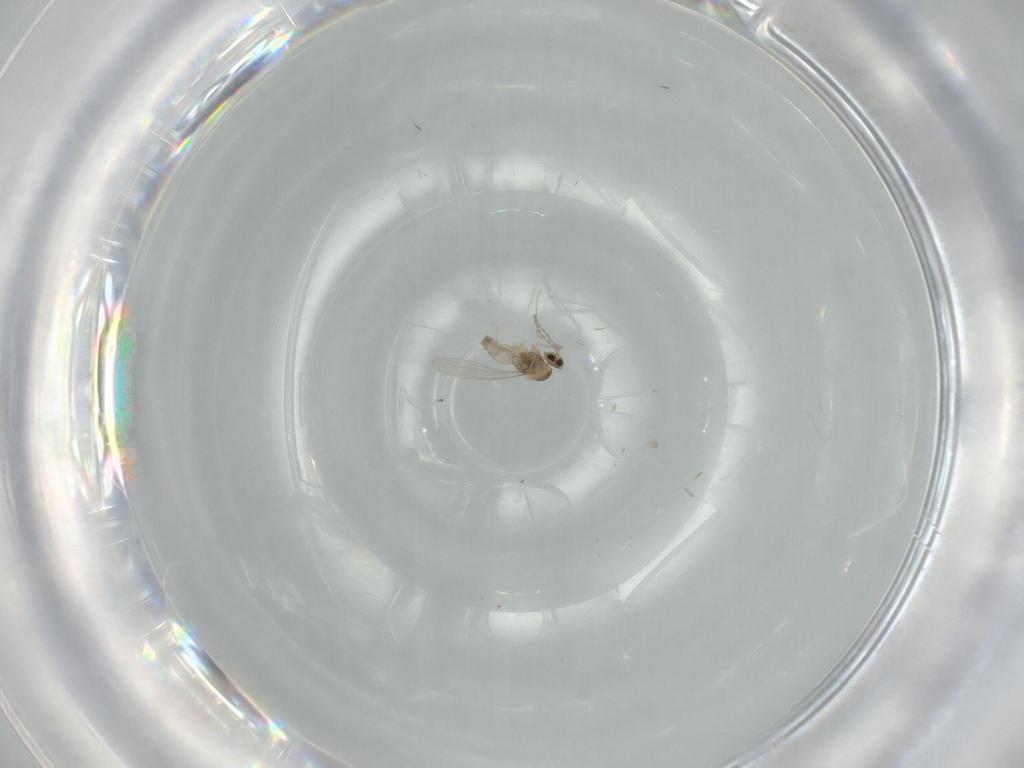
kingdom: Animalia
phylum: Arthropoda
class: Insecta
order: Diptera
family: Cecidomyiidae
